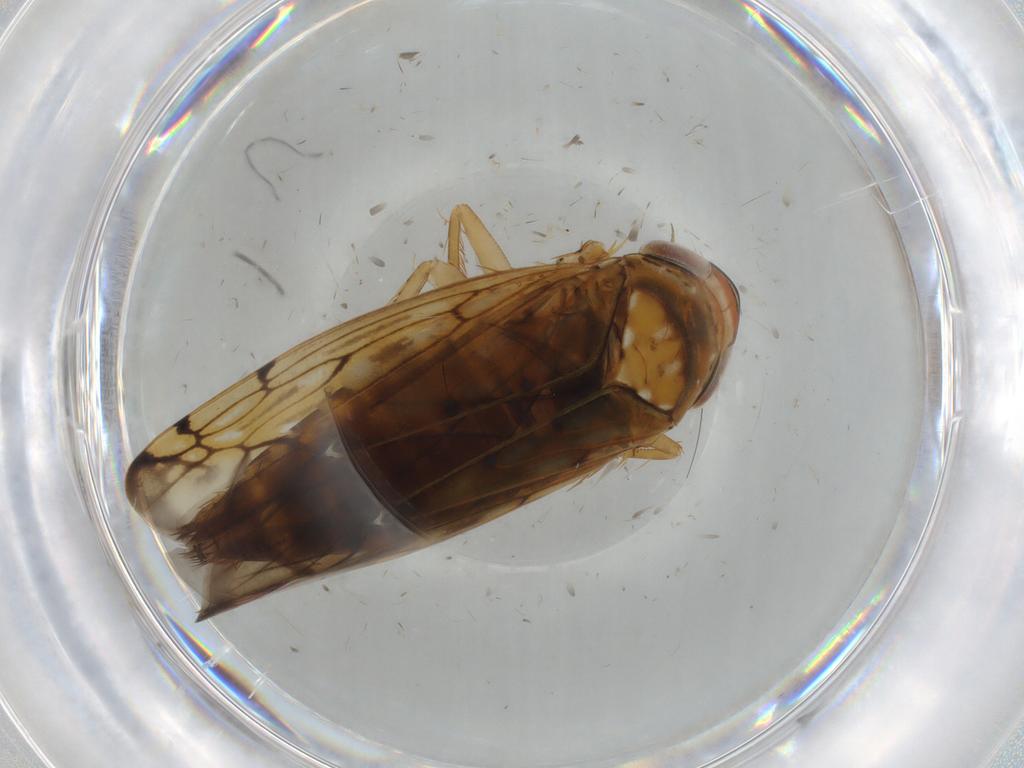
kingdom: Animalia
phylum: Arthropoda
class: Insecta
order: Hemiptera
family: Cicadellidae
